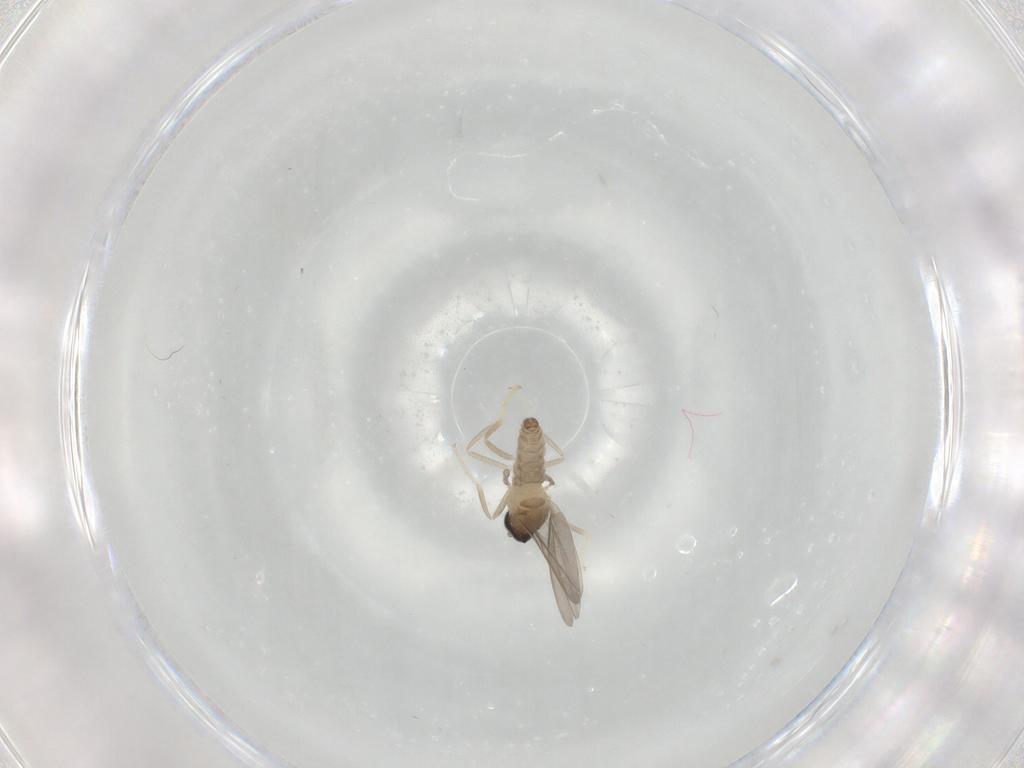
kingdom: Animalia
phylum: Arthropoda
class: Insecta
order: Diptera
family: Cecidomyiidae
